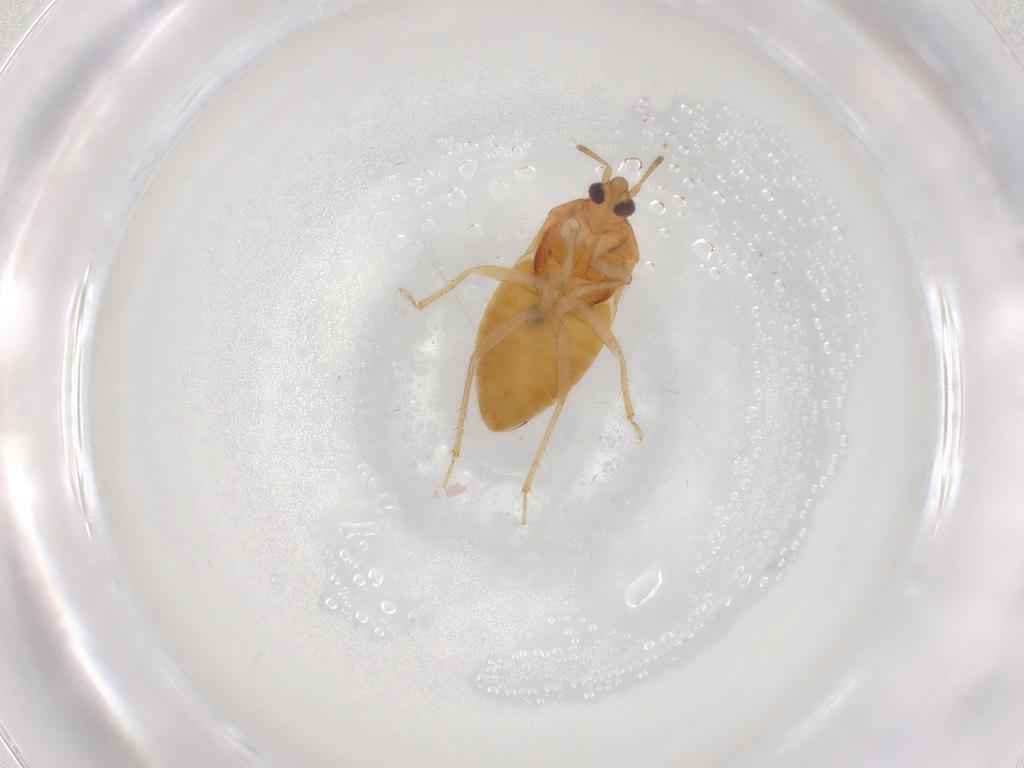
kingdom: Animalia
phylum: Arthropoda
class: Insecta
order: Hemiptera
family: Lasiochilidae
